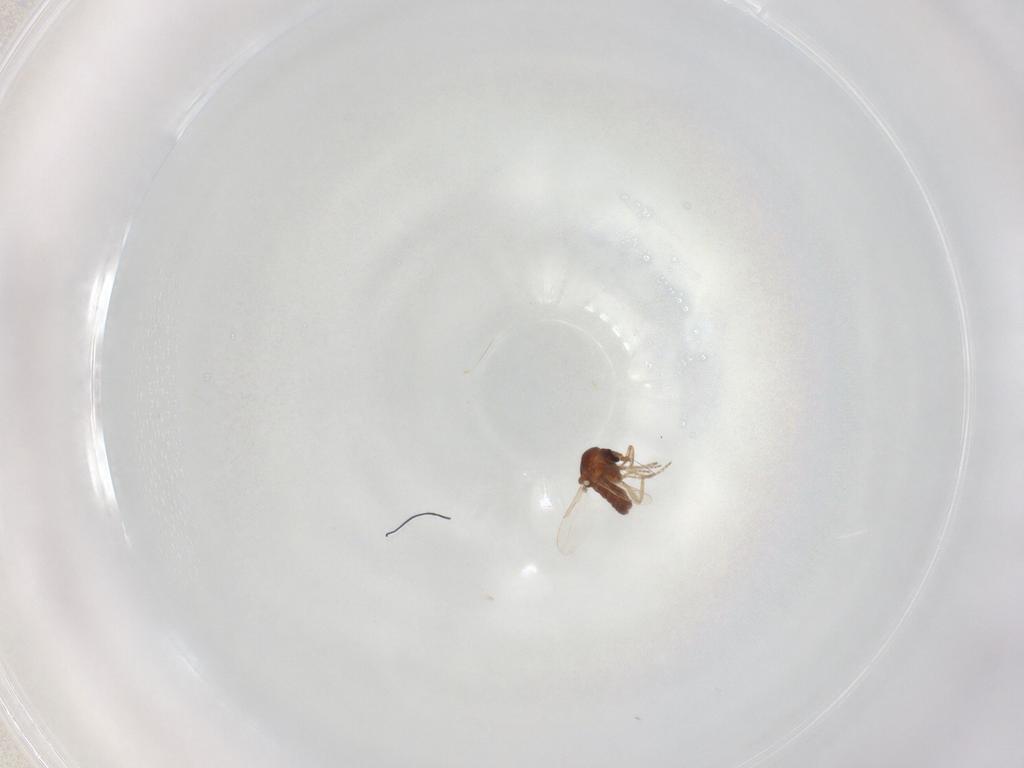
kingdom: Animalia
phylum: Arthropoda
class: Insecta
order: Diptera
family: Ceratopogonidae
